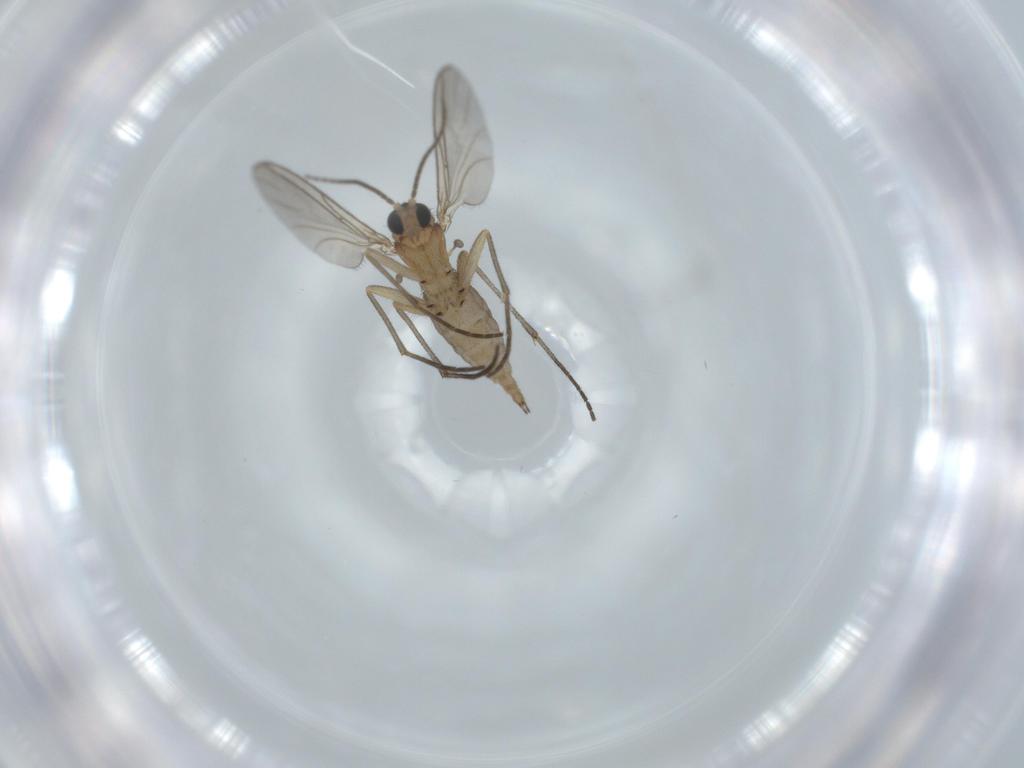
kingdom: Animalia
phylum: Arthropoda
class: Insecta
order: Diptera
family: Sciaridae
